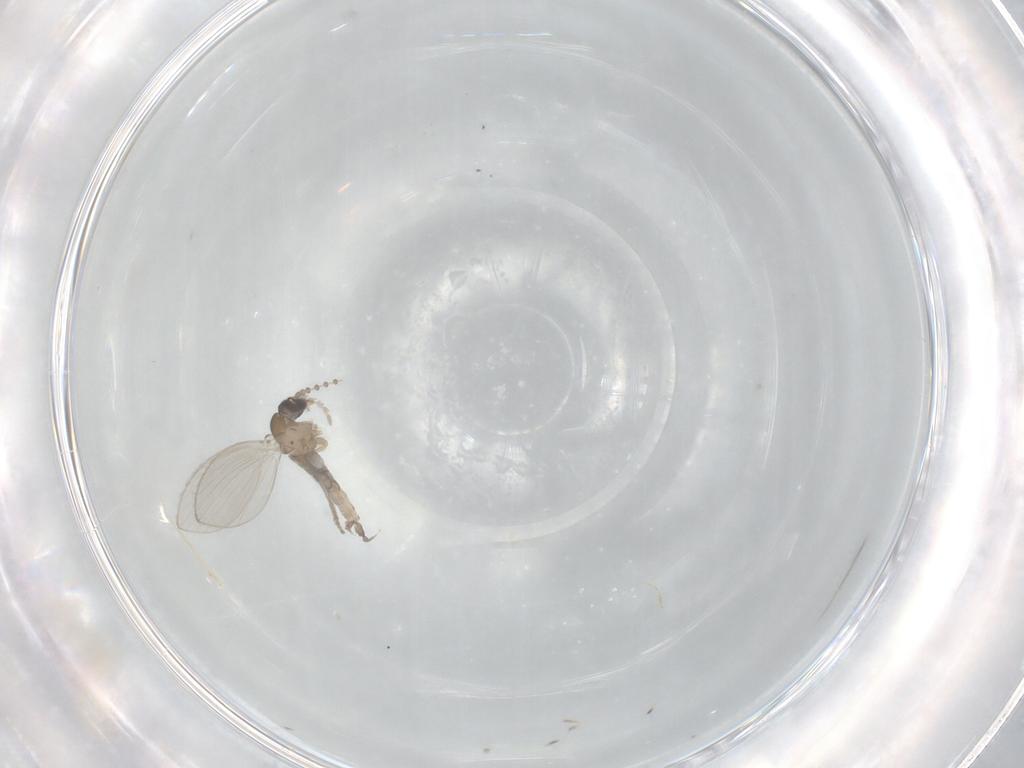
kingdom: Animalia
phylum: Arthropoda
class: Insecta
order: Diptera
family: Psychodidae
